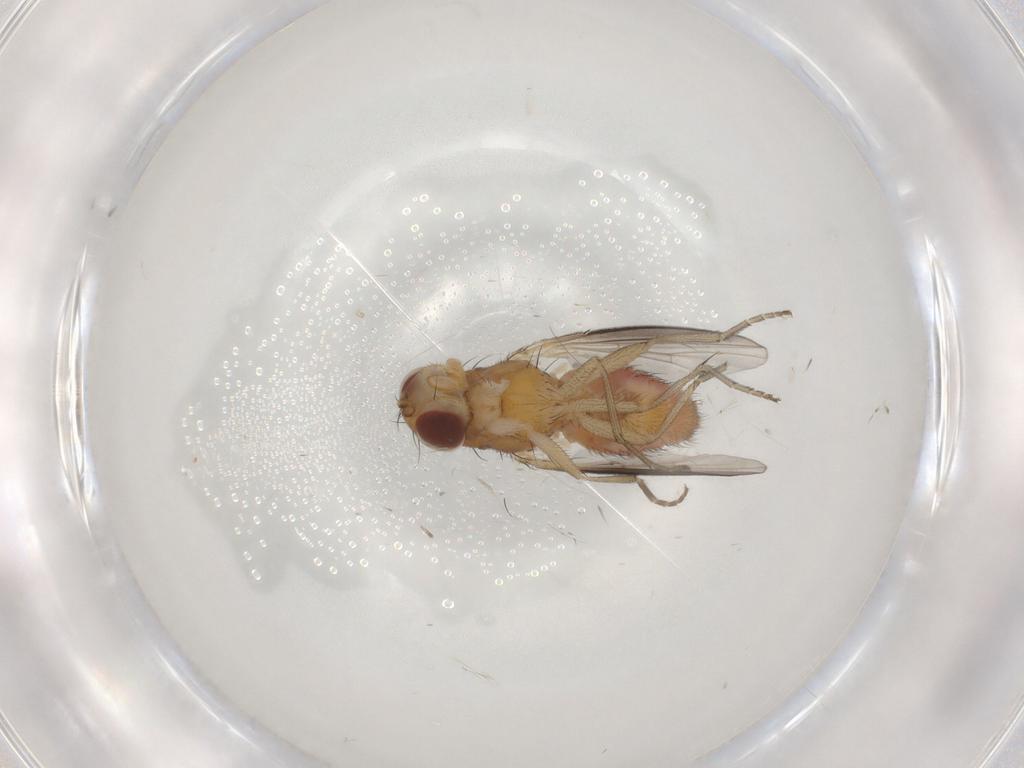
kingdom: Animalia
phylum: Arthropoda
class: Insecta
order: Diptera
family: Heleomyzidae
